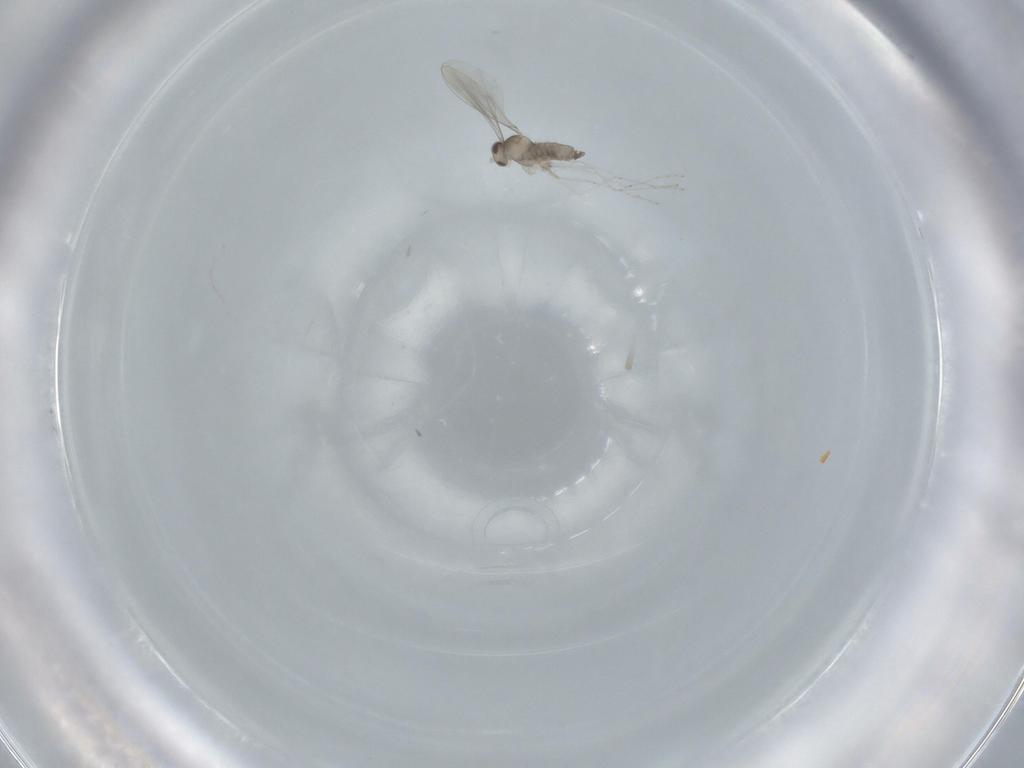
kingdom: Animalia
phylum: Arthropoda
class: Insecta
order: Diptera
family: Cecidomyiidae
